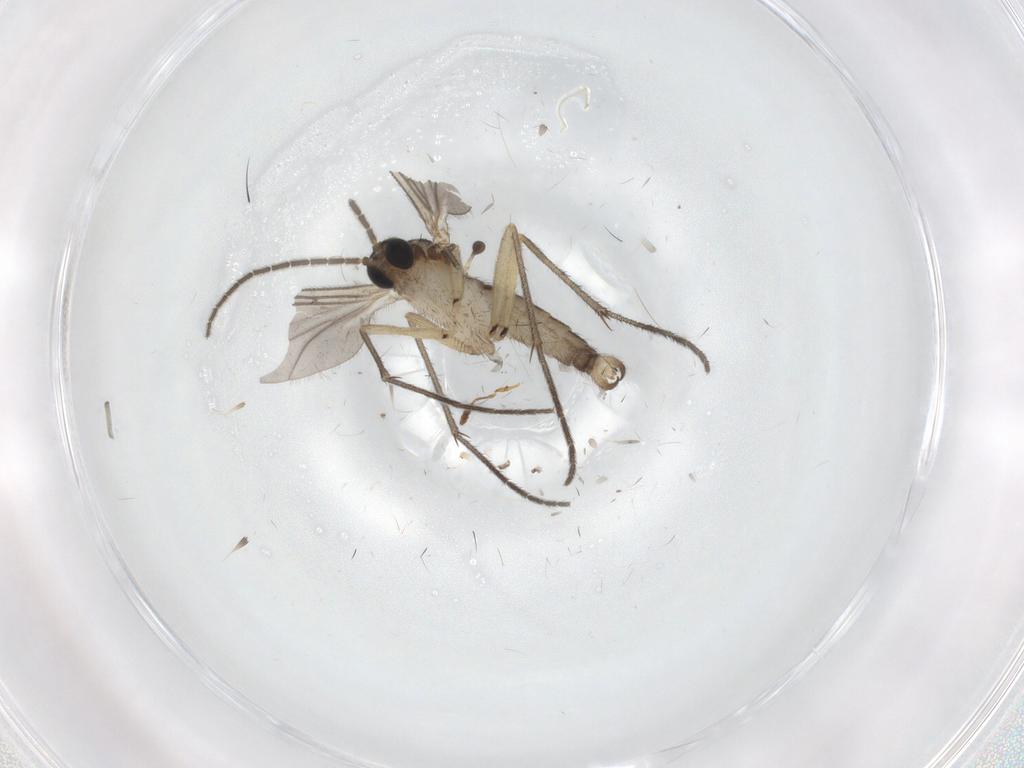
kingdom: Animalia
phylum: Arthropoda
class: Insecta
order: Diptera
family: Sciaridae
